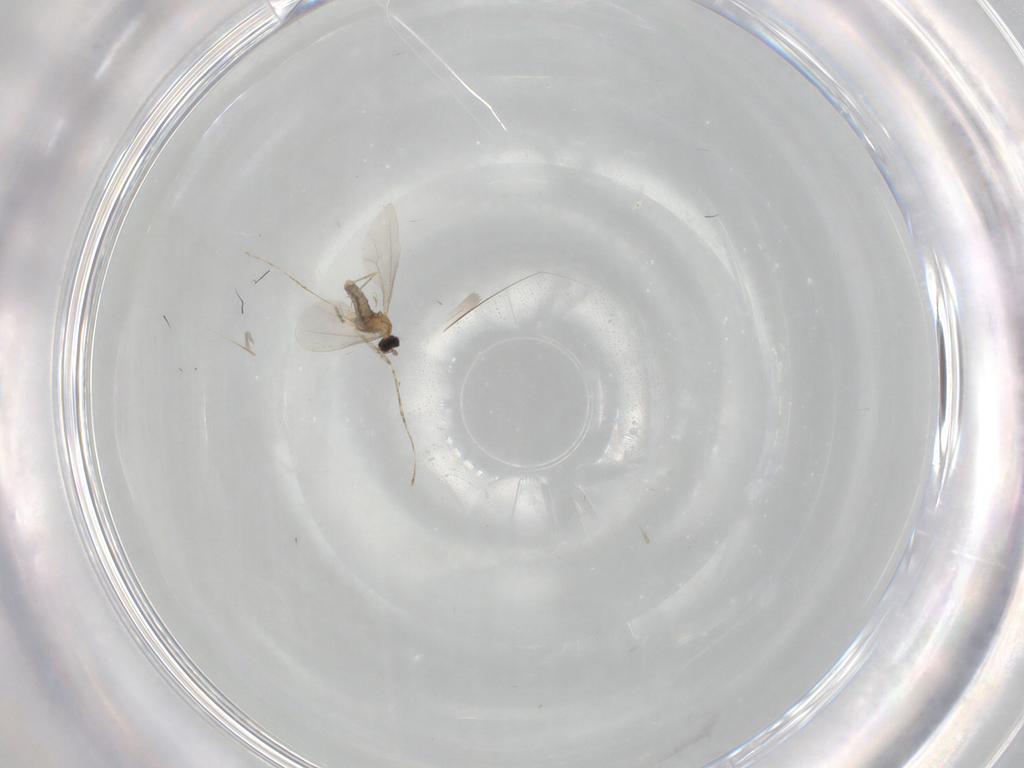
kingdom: Animalia
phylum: Arthropoda
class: Insecta
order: Diptera
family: Cecidomyiidae
